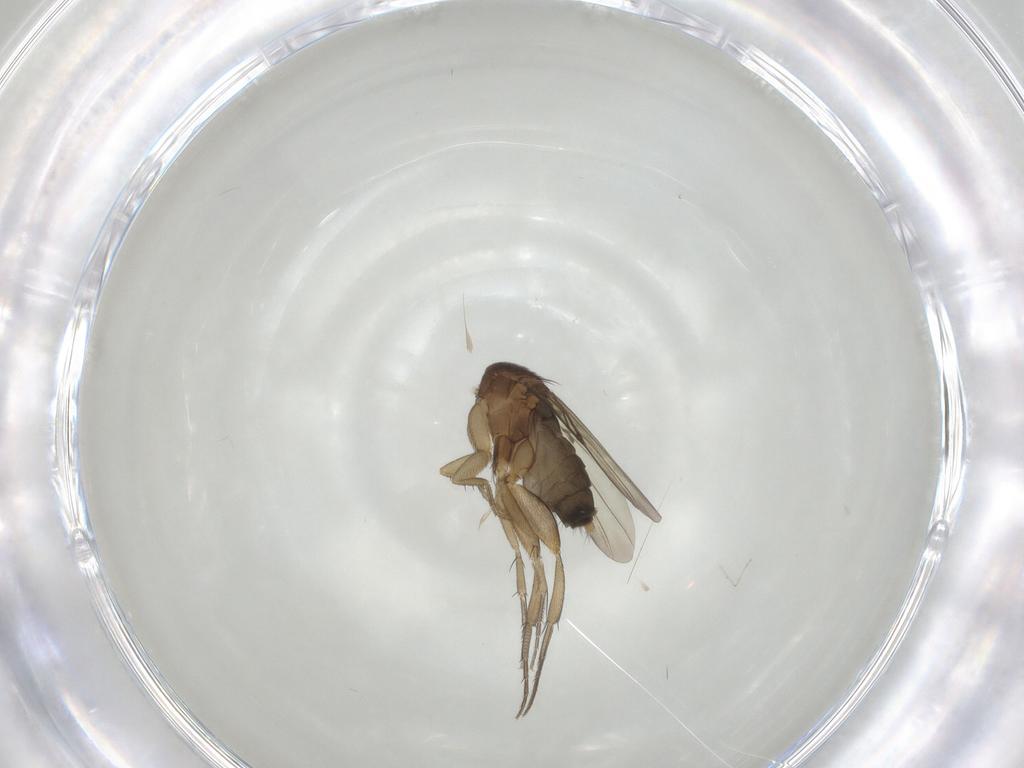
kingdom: Animalia
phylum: Arthropoda
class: Insecta
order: Diptera
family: Phoridae
